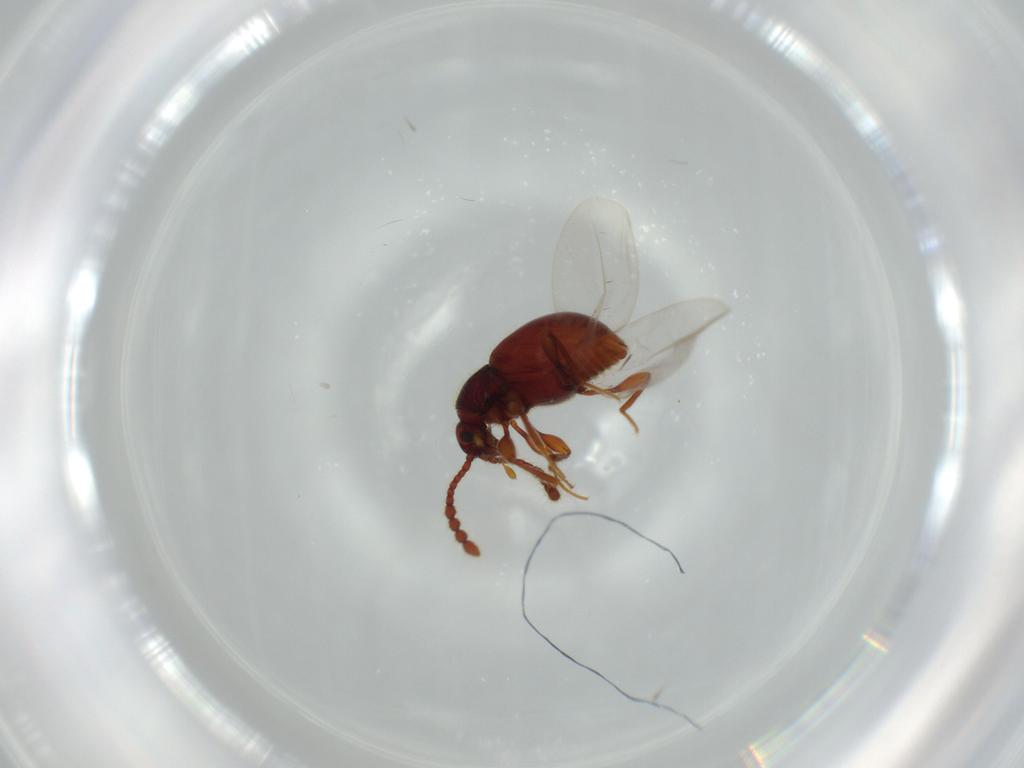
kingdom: Animalia
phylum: Arthropoda
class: Insecta
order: Coleoptera
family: Staphylinidae
